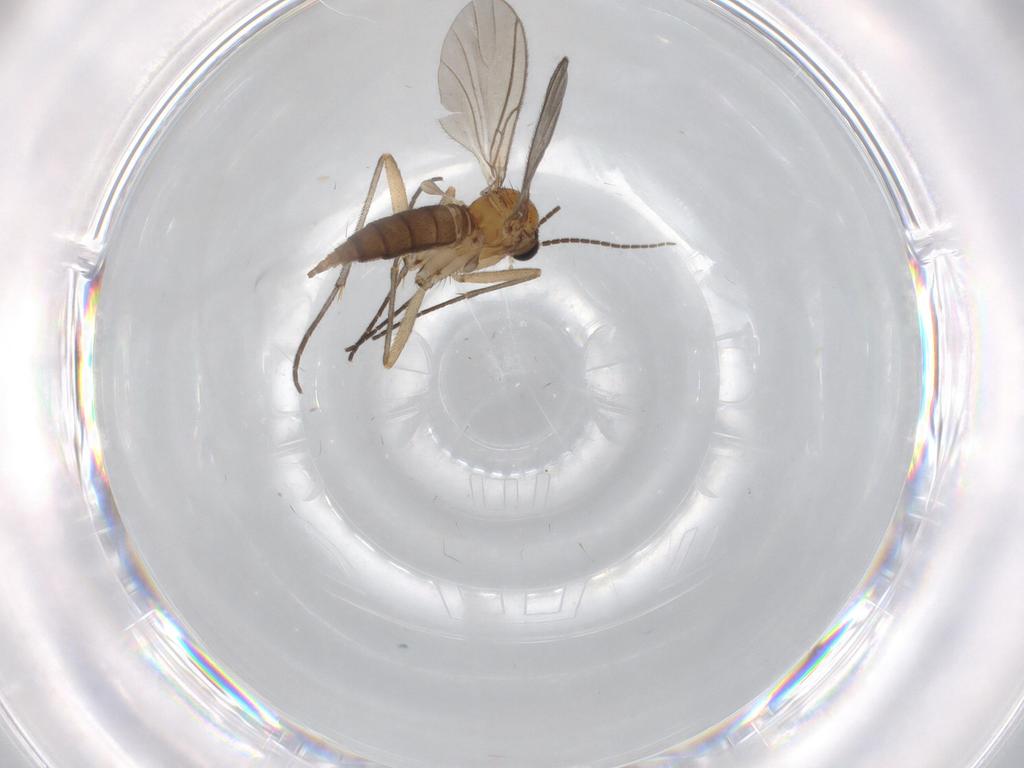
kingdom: Animalia
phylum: Arthropoda
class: Insecta
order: Diptera
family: Sciaridae
